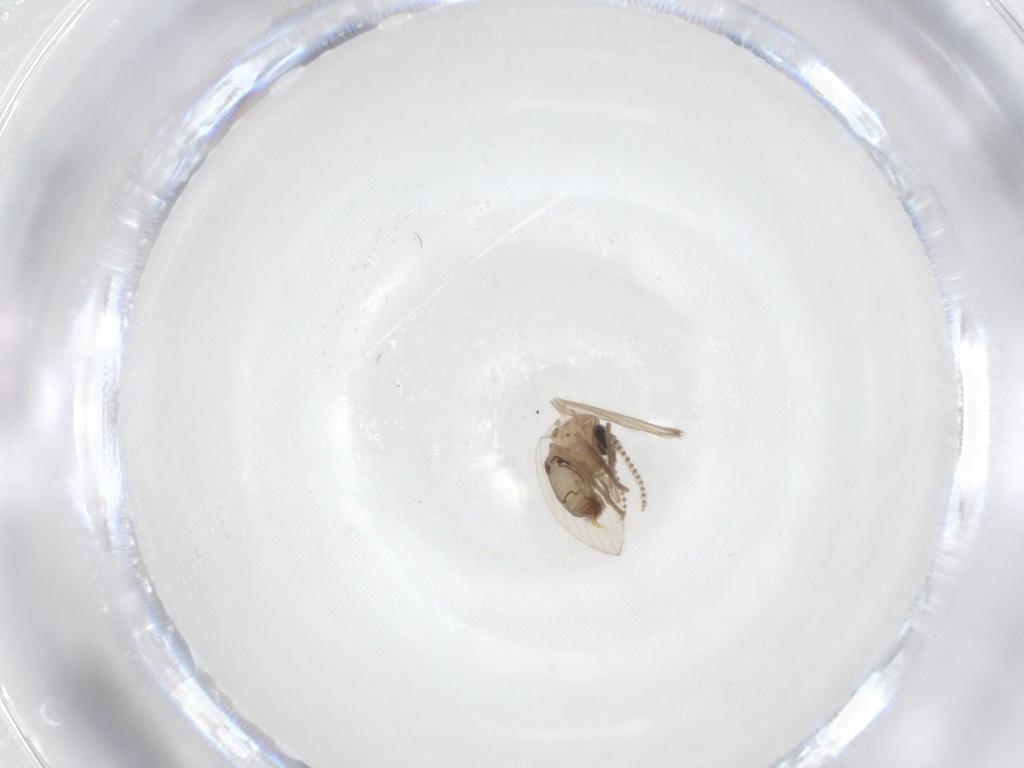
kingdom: Animalia
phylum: Arthropoda
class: Insecta
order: Diptera
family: Psychodidae
